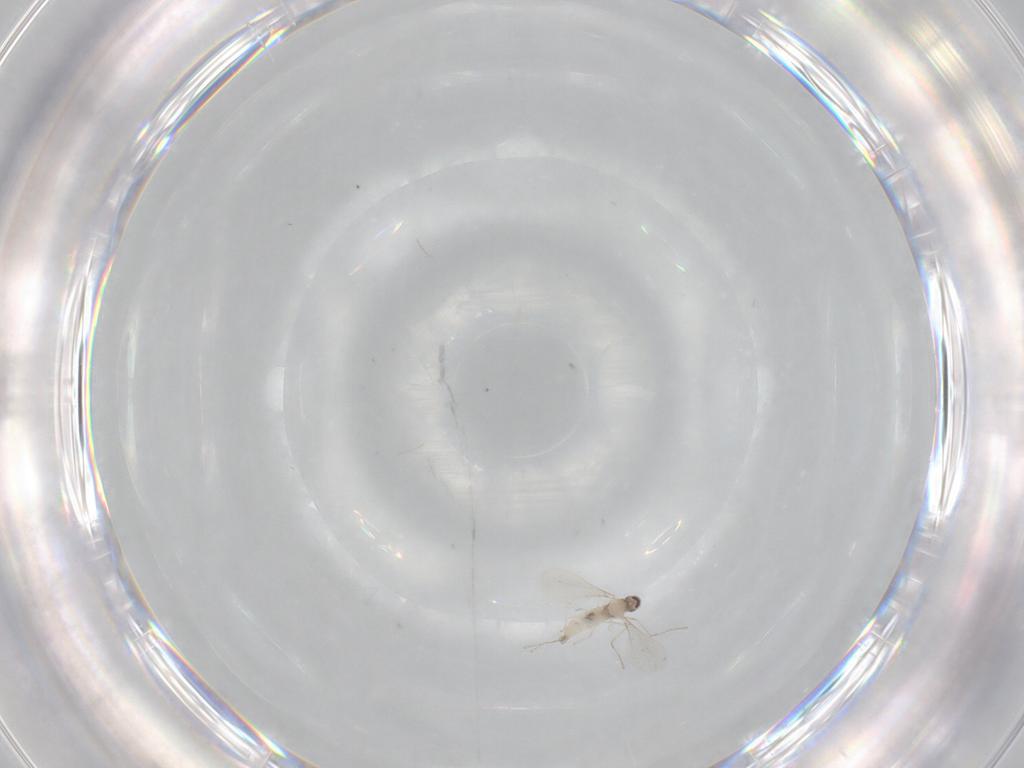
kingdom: Animalia
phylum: Arthropoda
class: Insecta
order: Diptera
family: Cecidomyiidae
